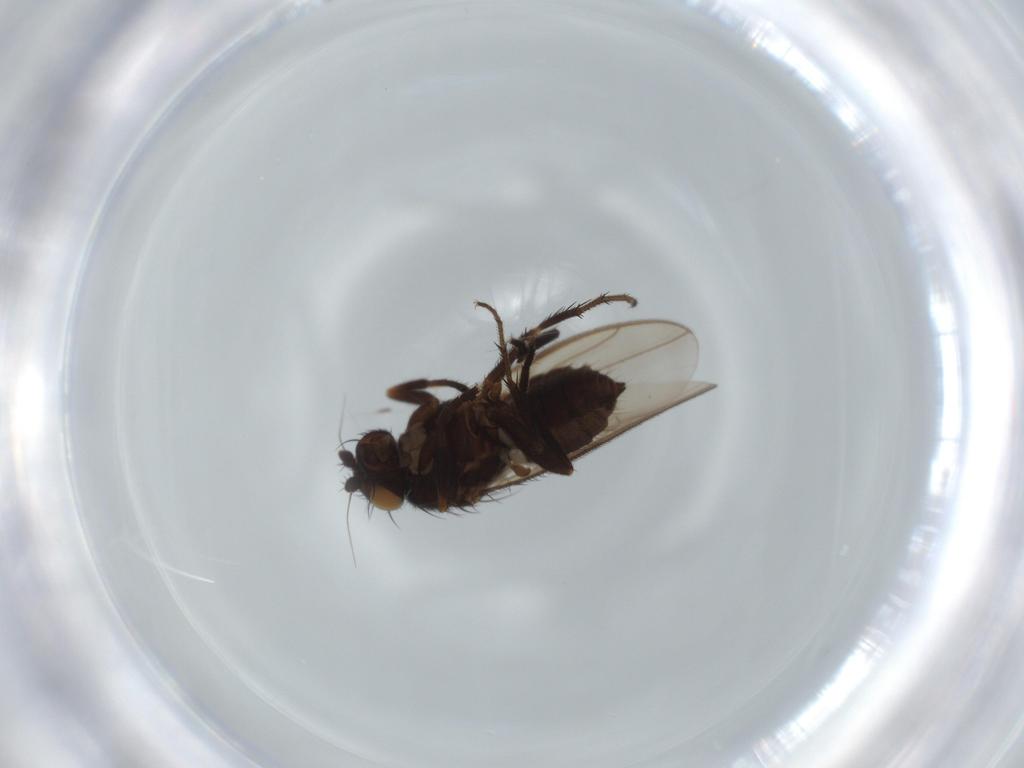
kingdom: Animalia
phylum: Arthropoda
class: Insecta
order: Diptera
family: Sphaeroceridae
